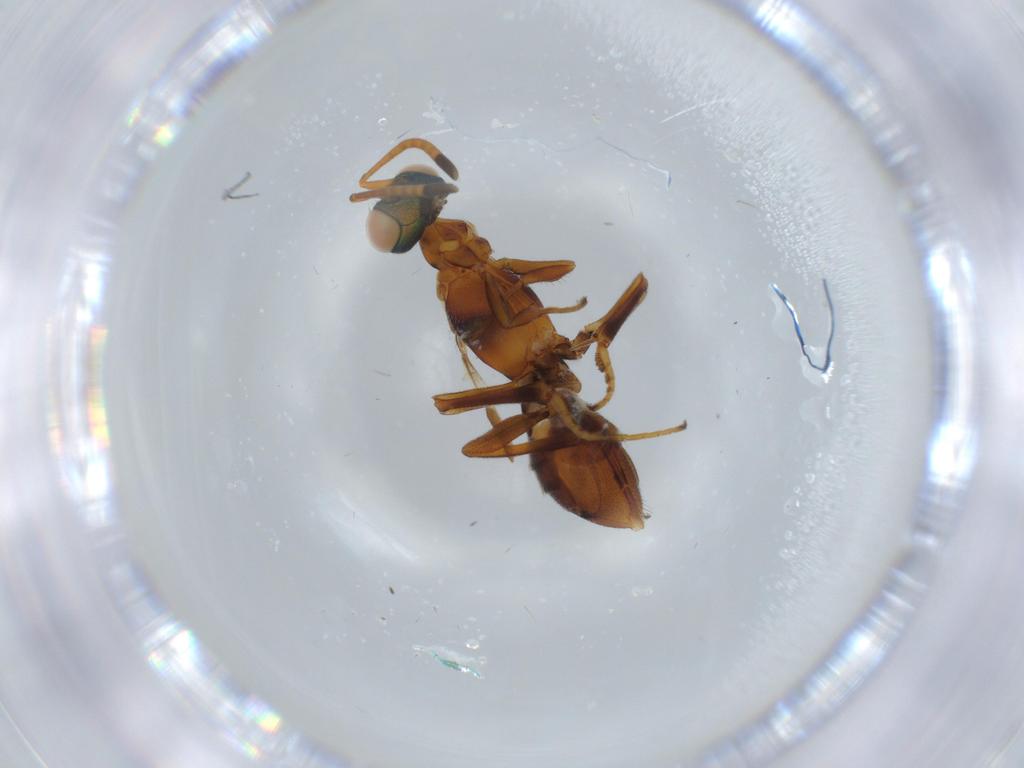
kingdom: Animalia
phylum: Arthropoda
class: Insecta
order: Hymenoptera
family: Eupelmidae
